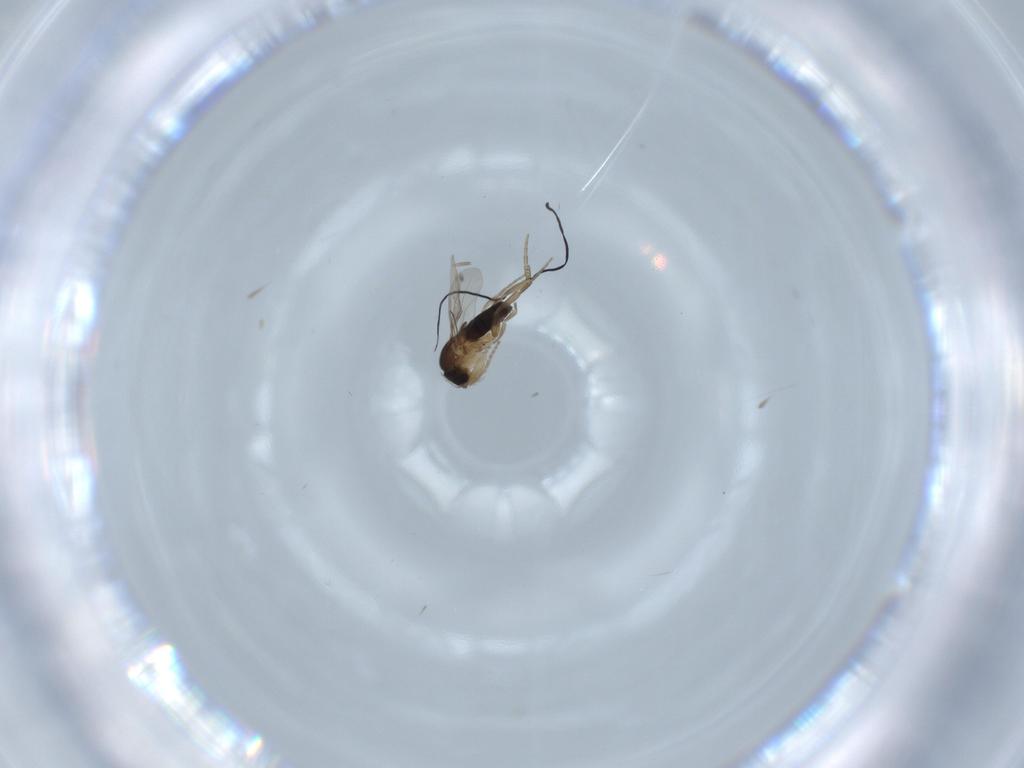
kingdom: Animalia
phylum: Arthropoda
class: Insecta
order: Diptera
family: Phoridae
